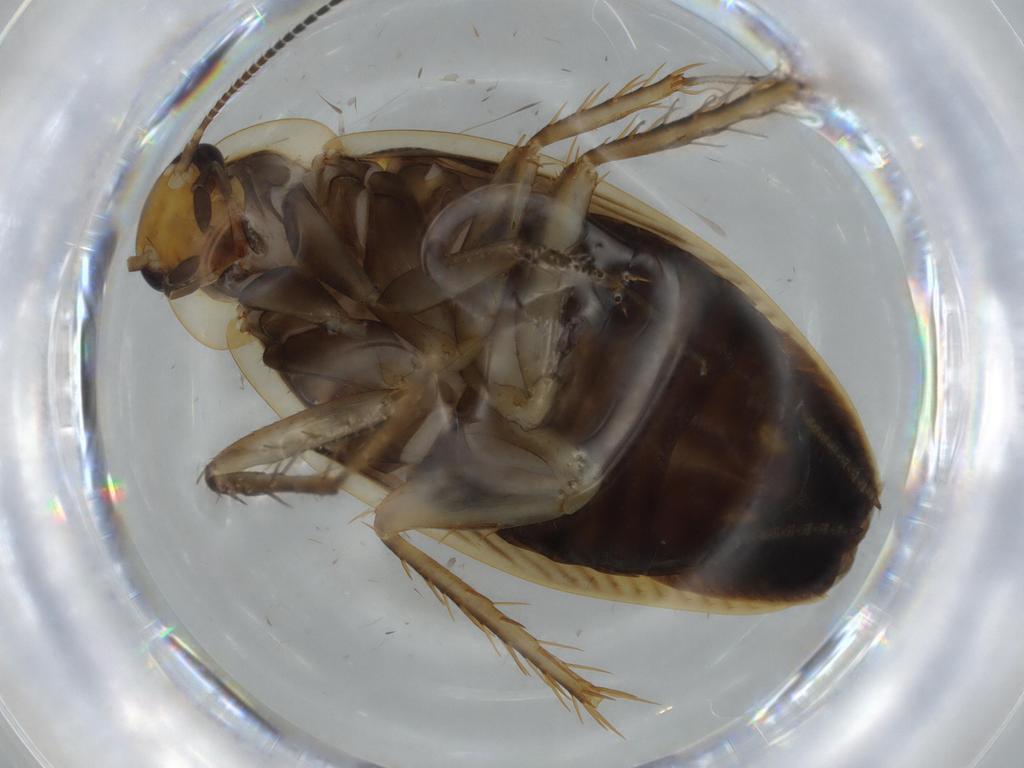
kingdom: Animalia
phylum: Arthropoda
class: Insecta
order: Blattodea
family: Ectobiidae
